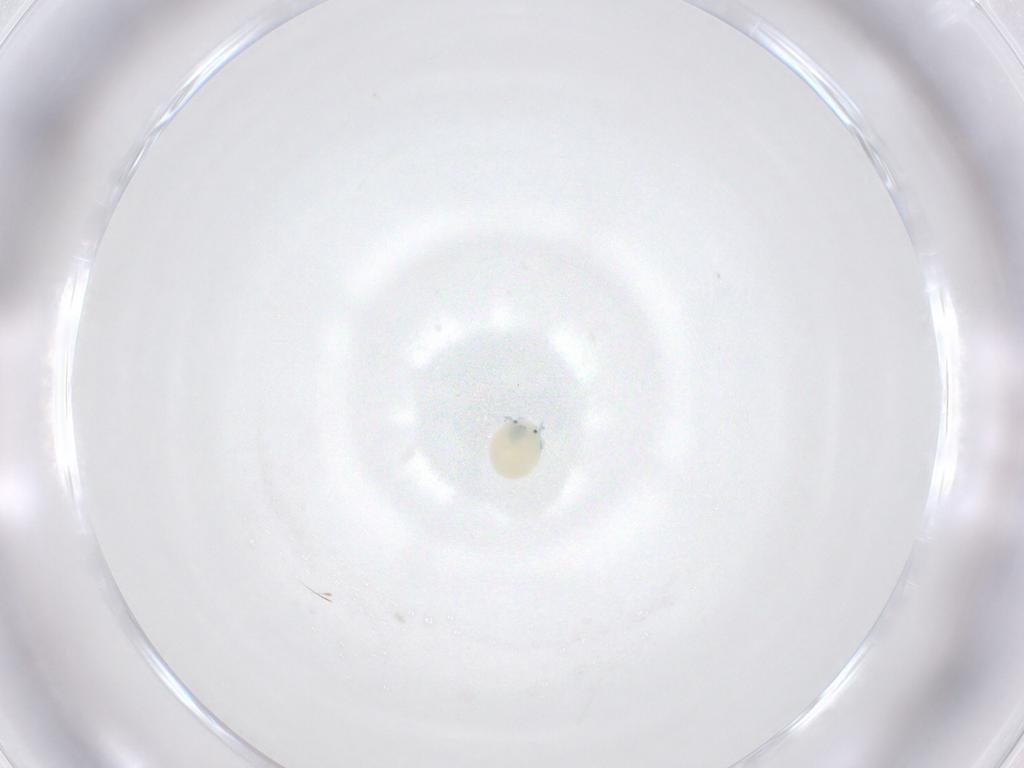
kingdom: Animalia
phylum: Arthropoda
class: Arachnida
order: Trombidiformes
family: Arrenuridae
